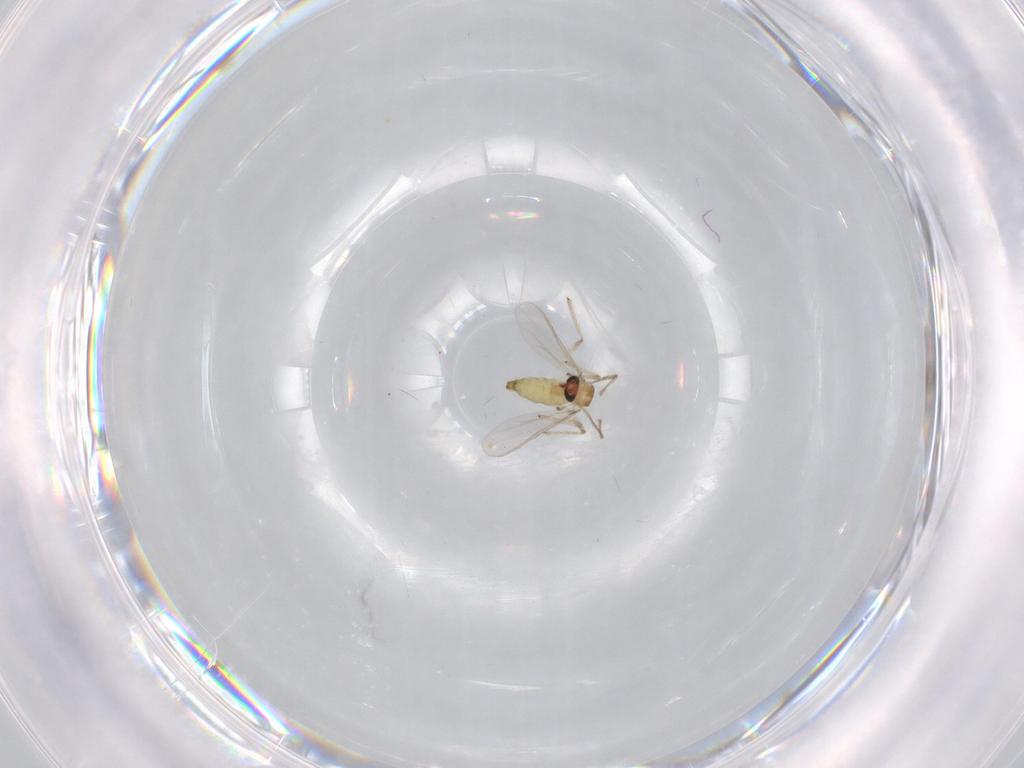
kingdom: Animalia
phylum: Arthropoda
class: Insecta
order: Diptera
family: Chironomidae
